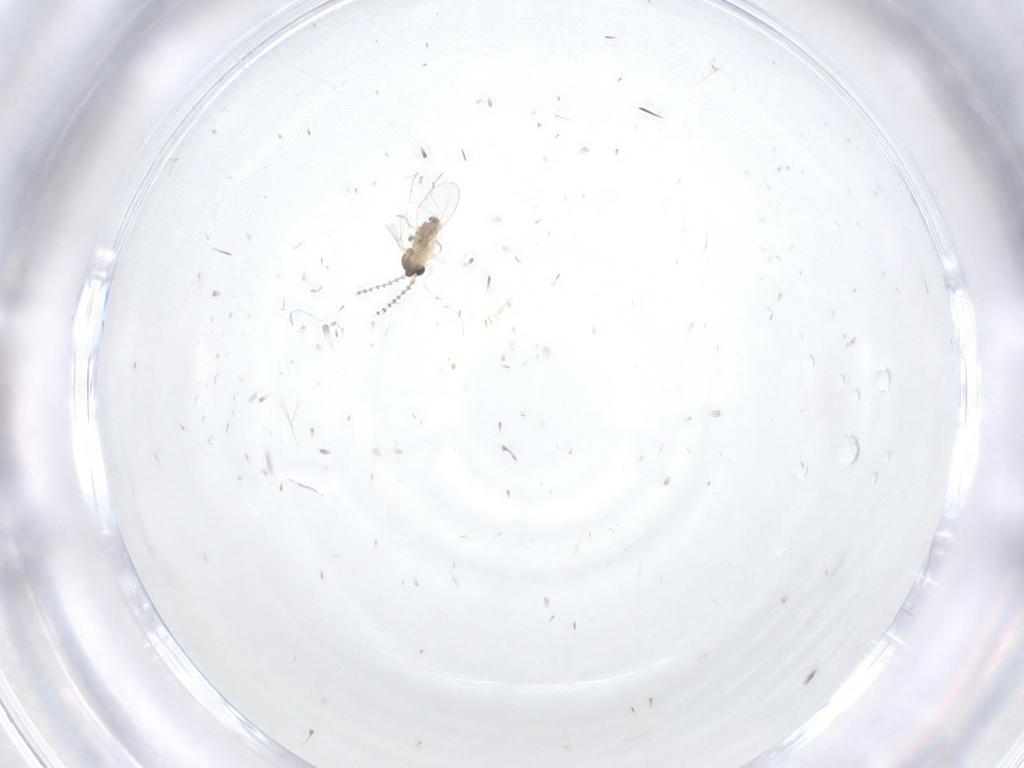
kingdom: Animalia
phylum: Arthropoda
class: Insecta
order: Diptera
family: Cecidomyiidae
